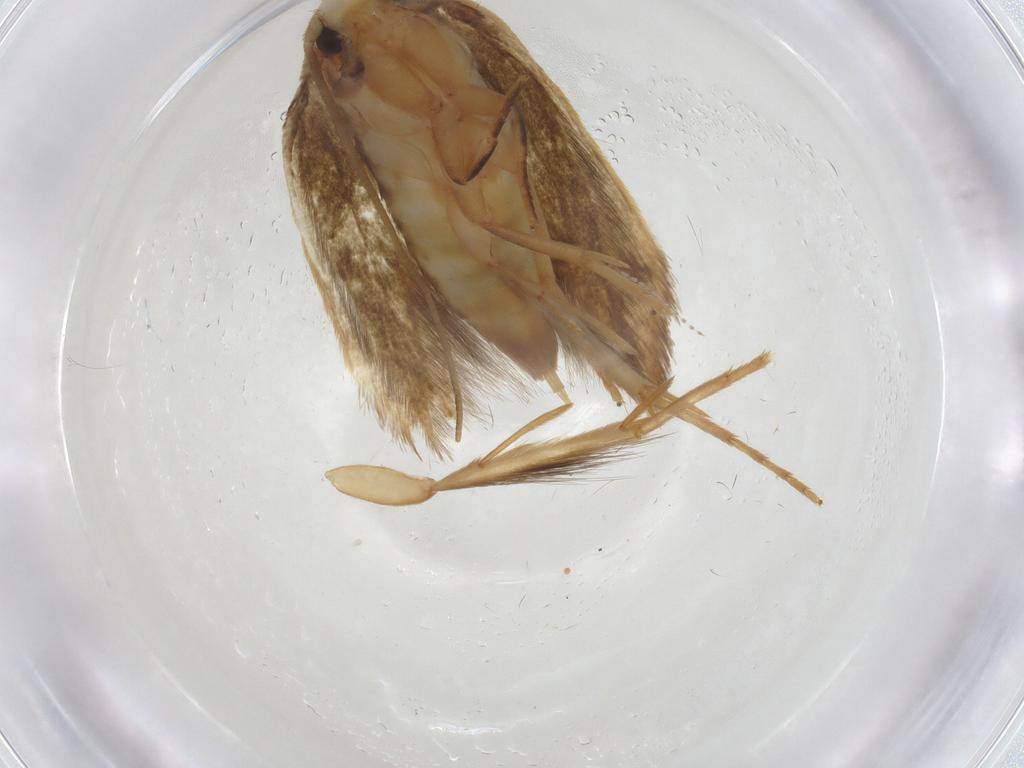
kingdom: Animalia
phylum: Arthropoda
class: Insecta
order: Lepidoptera
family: Tineidae
